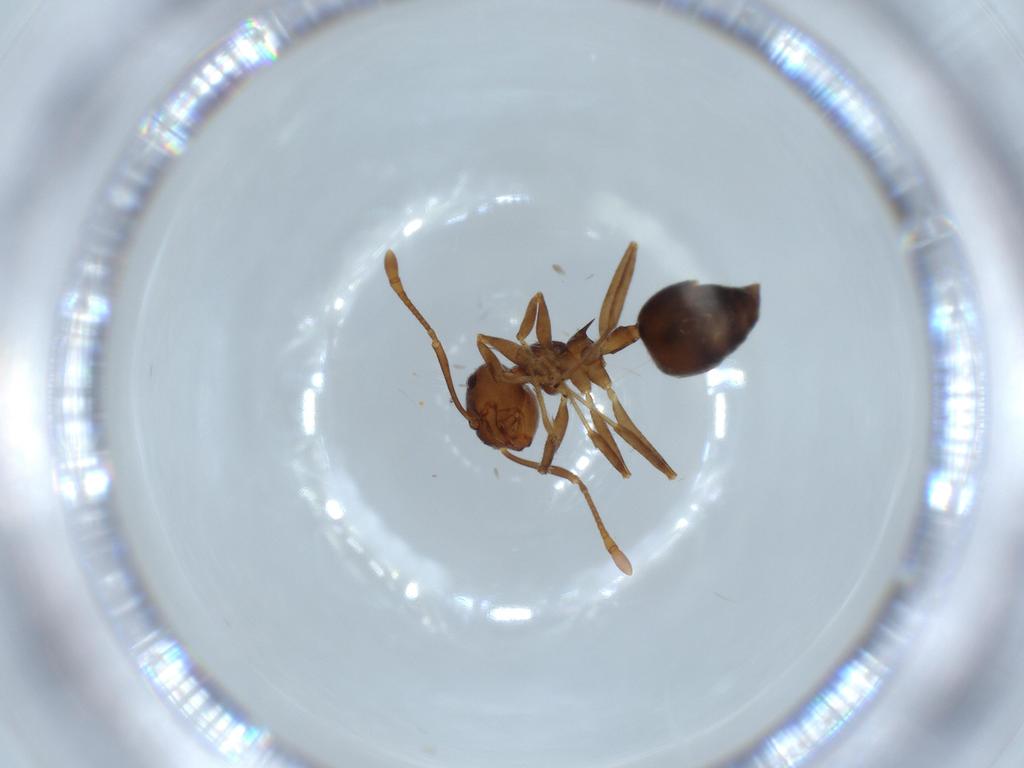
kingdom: Animalia
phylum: Arthropoda
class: Insecta
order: Hymenoptera
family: Formicidae
